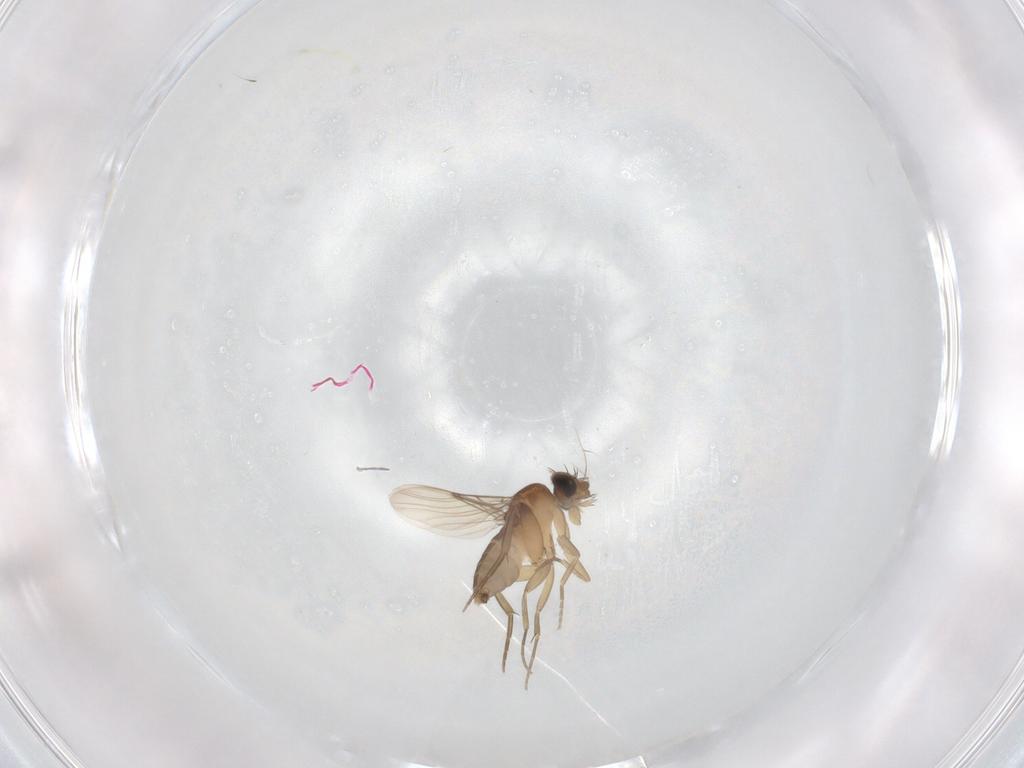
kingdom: Animalia
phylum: Arthropoda
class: Insecta
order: Diptera
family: Phoridae
